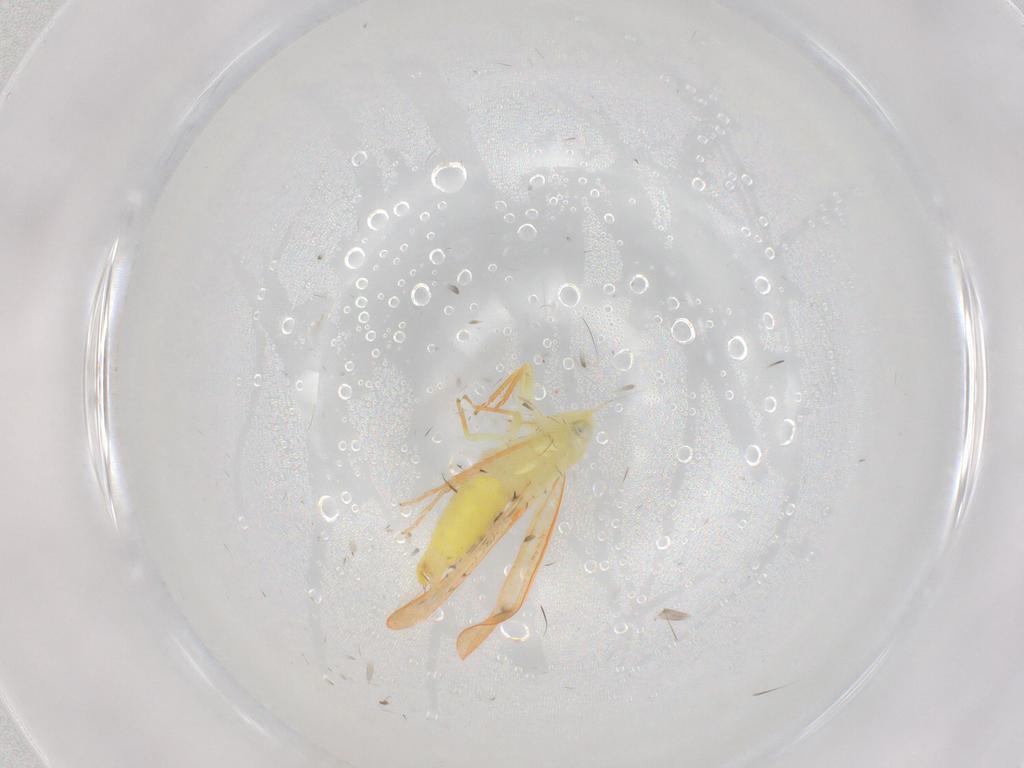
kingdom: Animalia
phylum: Arthropoda
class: Insecta
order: Hemiptera
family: Cicadellidae
